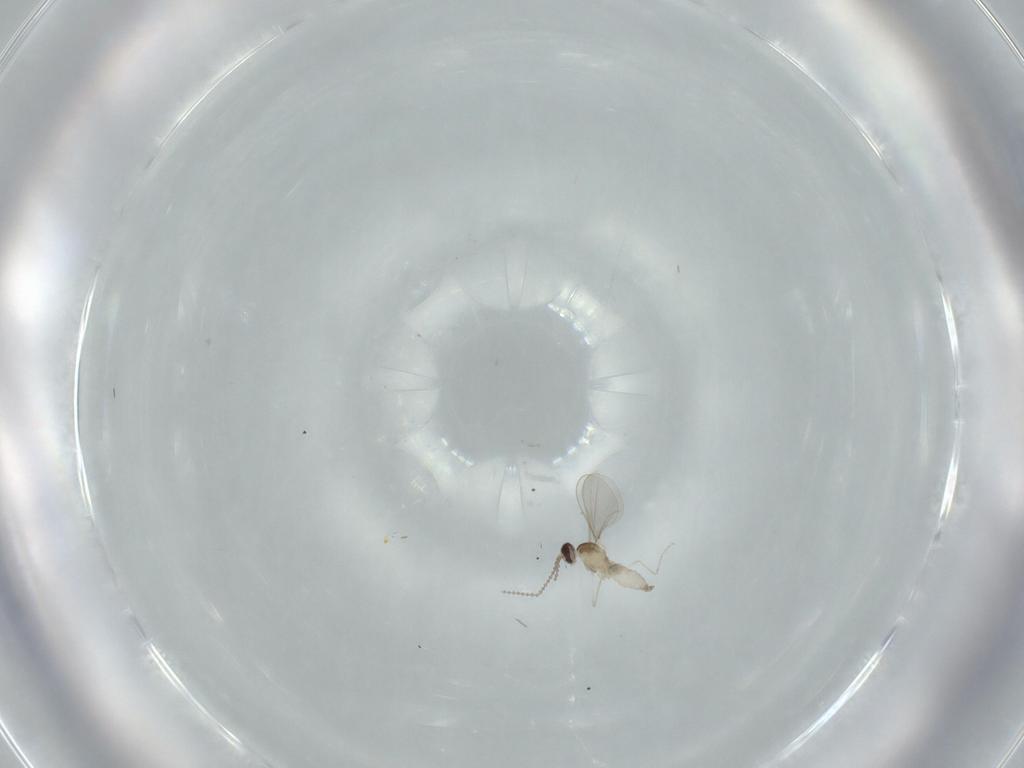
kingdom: Animalia
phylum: Arthropoda
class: Insecta
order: Diptera
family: Cecidomyiidae
